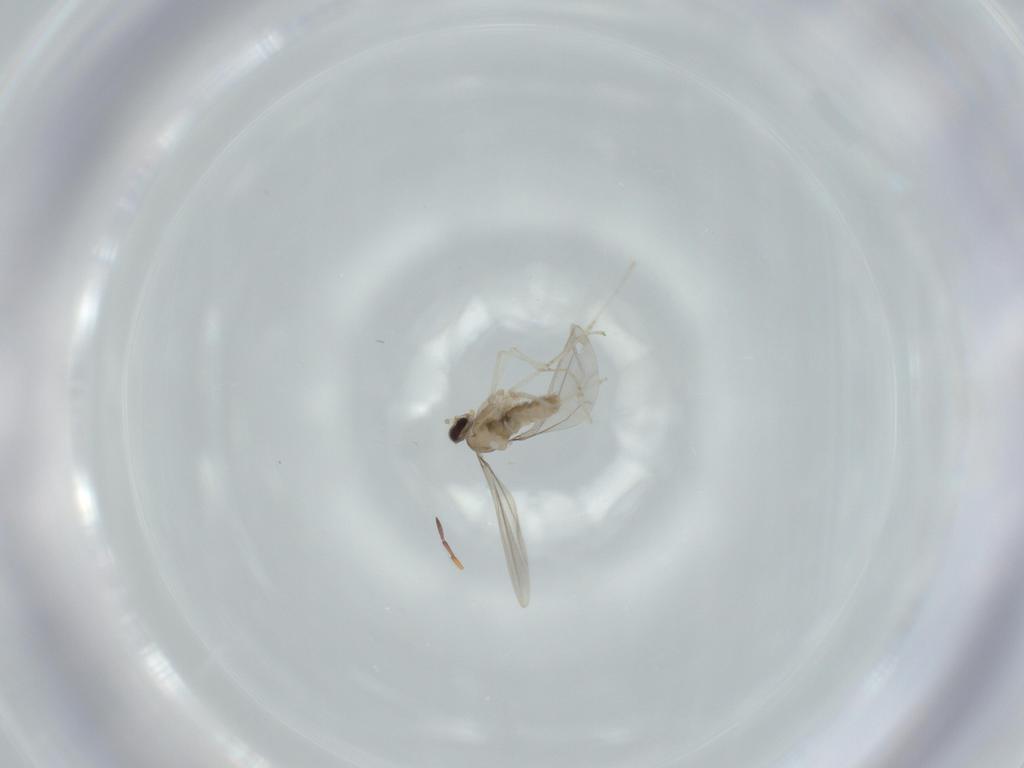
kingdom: Animalia
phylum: Arthropoda
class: Insecta
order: Diptera
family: Cecidomyiidae
